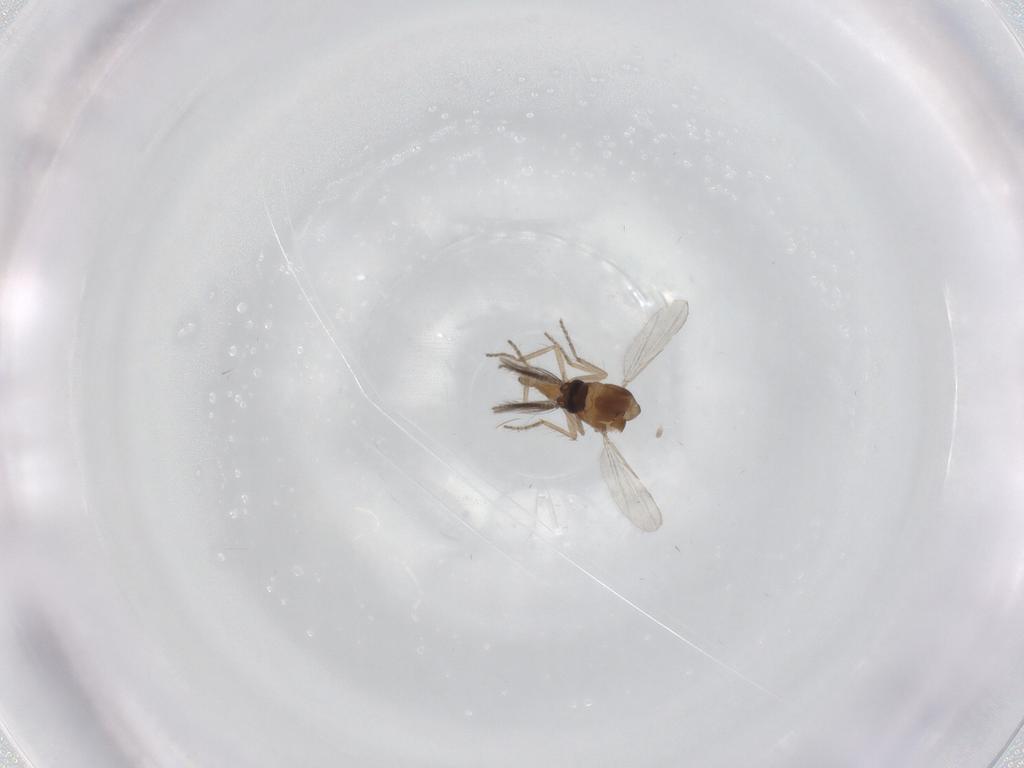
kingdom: Animalia
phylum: Arthropoda
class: Insecta
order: Diptera
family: Ceratopogonidae
